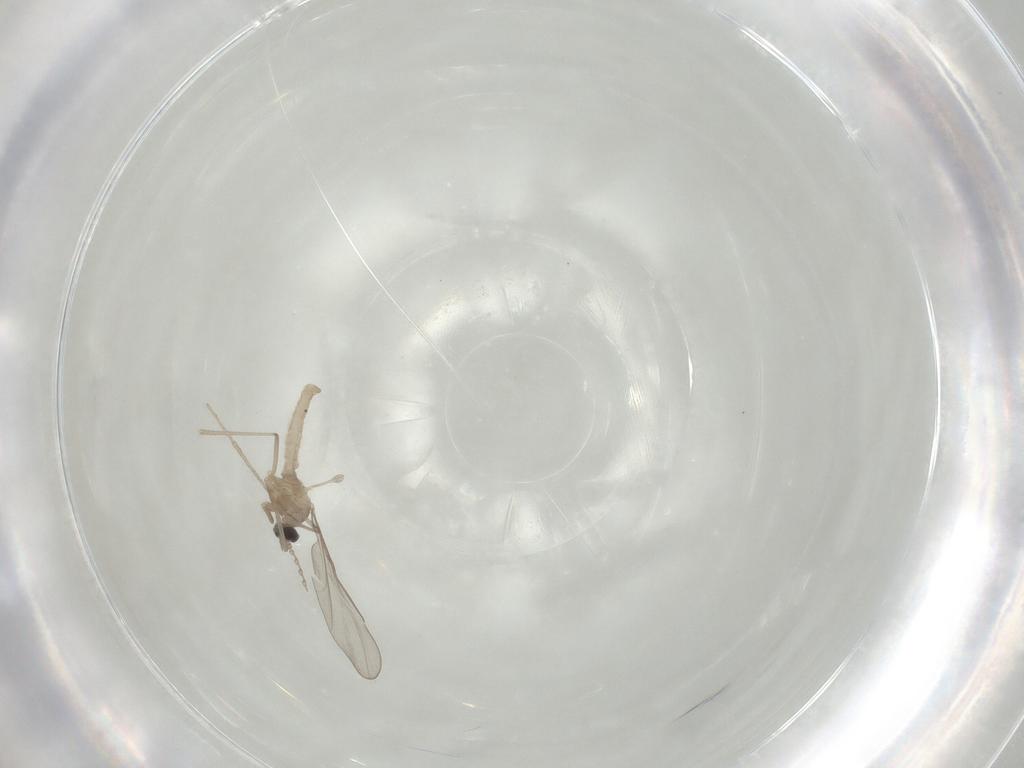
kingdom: Animalia
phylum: Arthropoda
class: Insecta
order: Diptera
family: Cecidomyiidae
